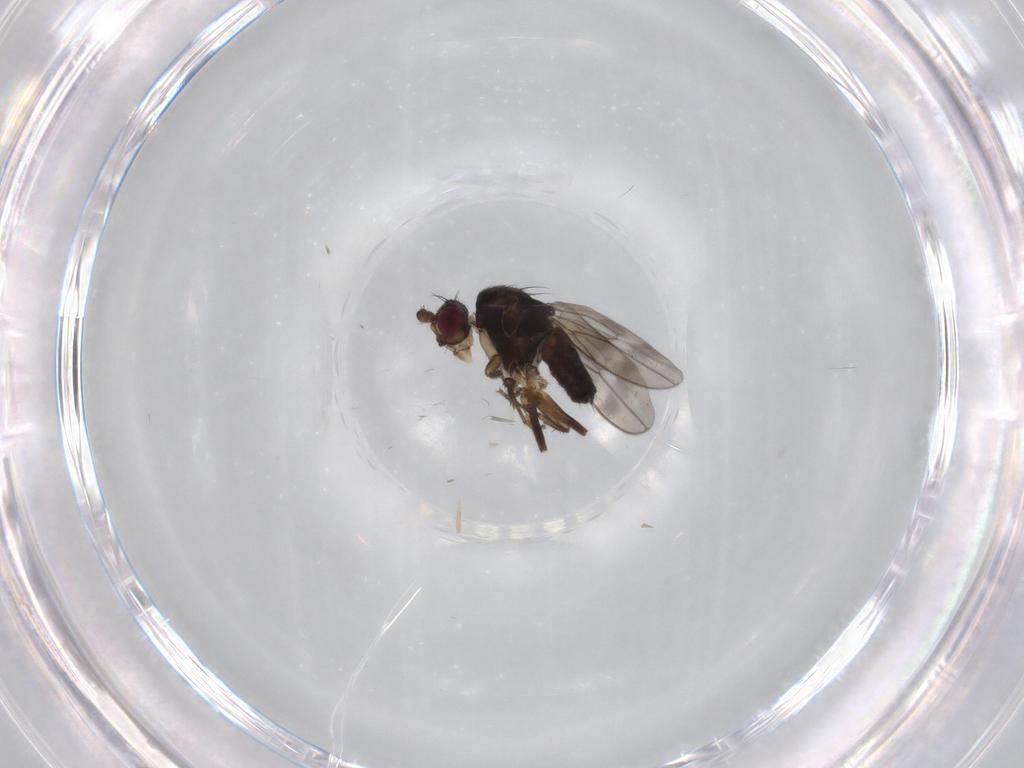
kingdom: Animalia
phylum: Arthropoda
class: Insecta
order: Diptera
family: Sphaeroceridae
